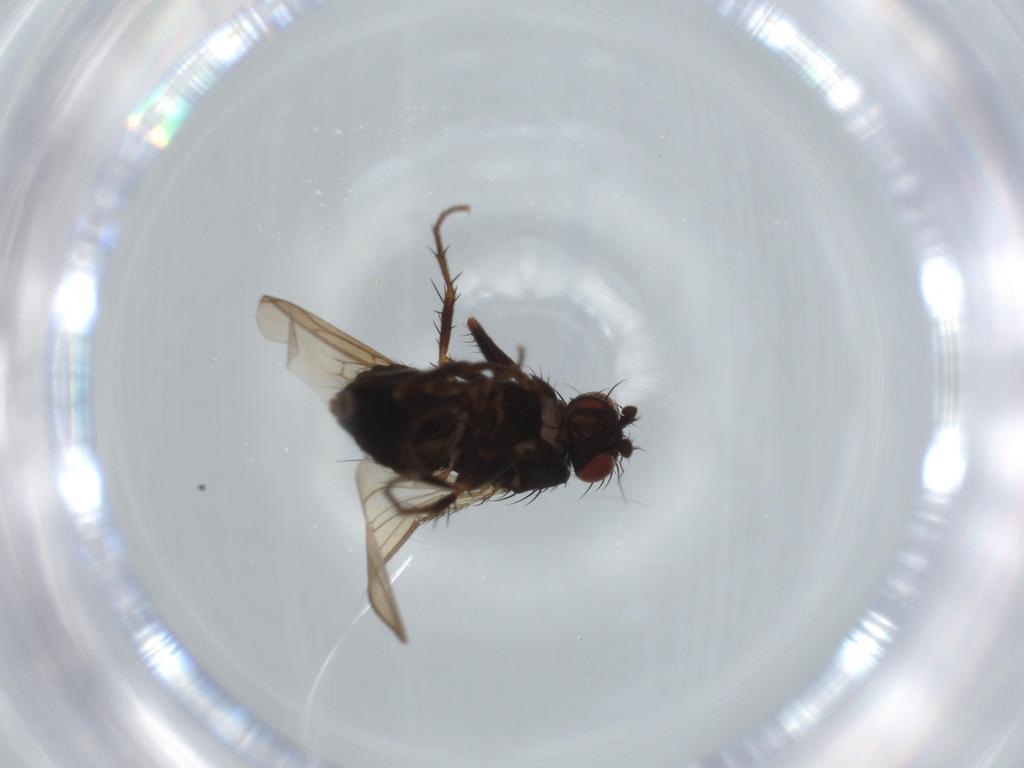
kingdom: Animalia
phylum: Arthropoda
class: Insecta
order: Diptera
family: Sphaeroceridae
